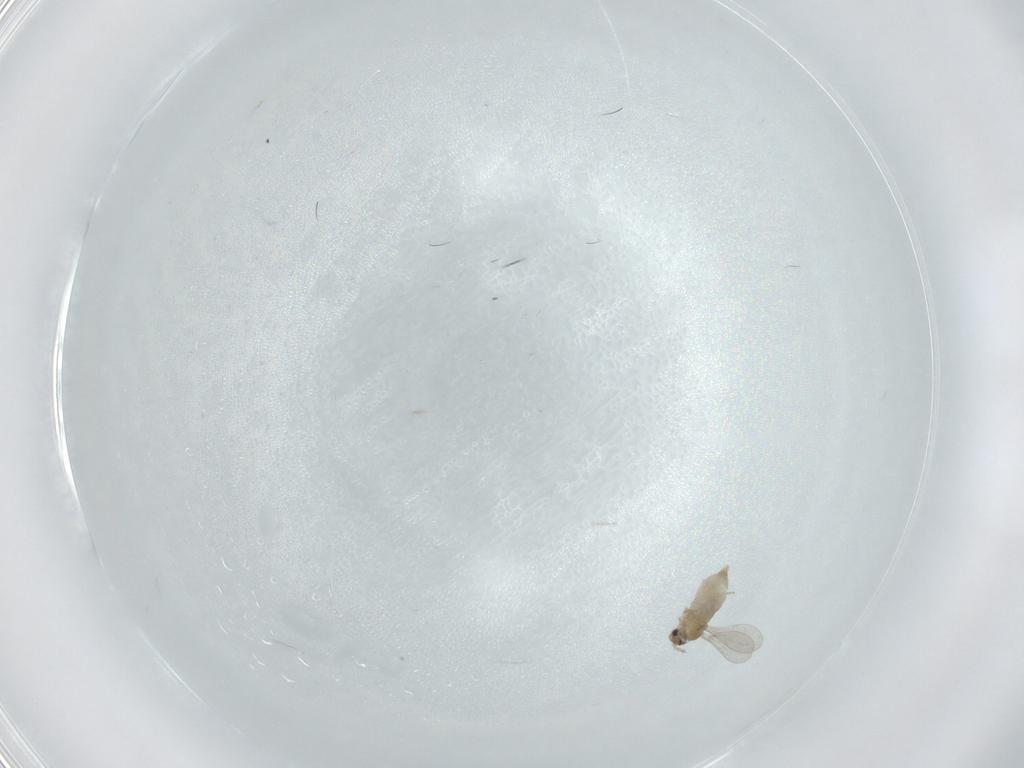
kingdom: Animalia
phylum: Arthropoda
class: Insecta
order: Diptera
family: Cecidomyiidae
